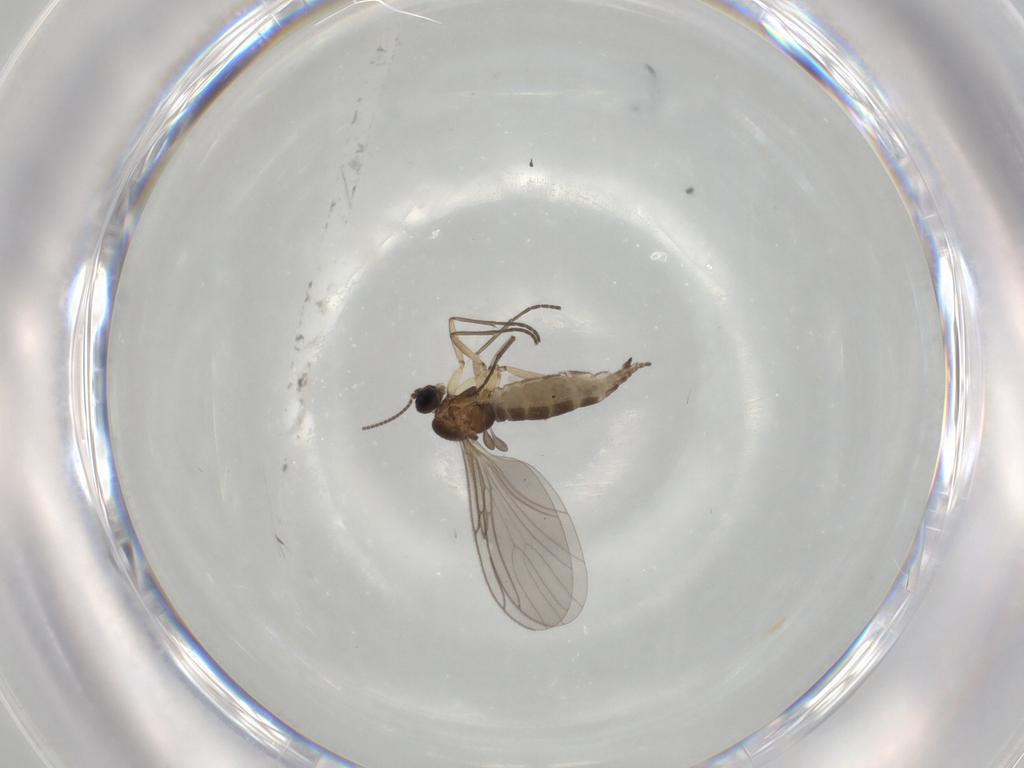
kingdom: Animalia
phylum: Arthropoda
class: Insecta
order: Diptera
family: Sciaridae
